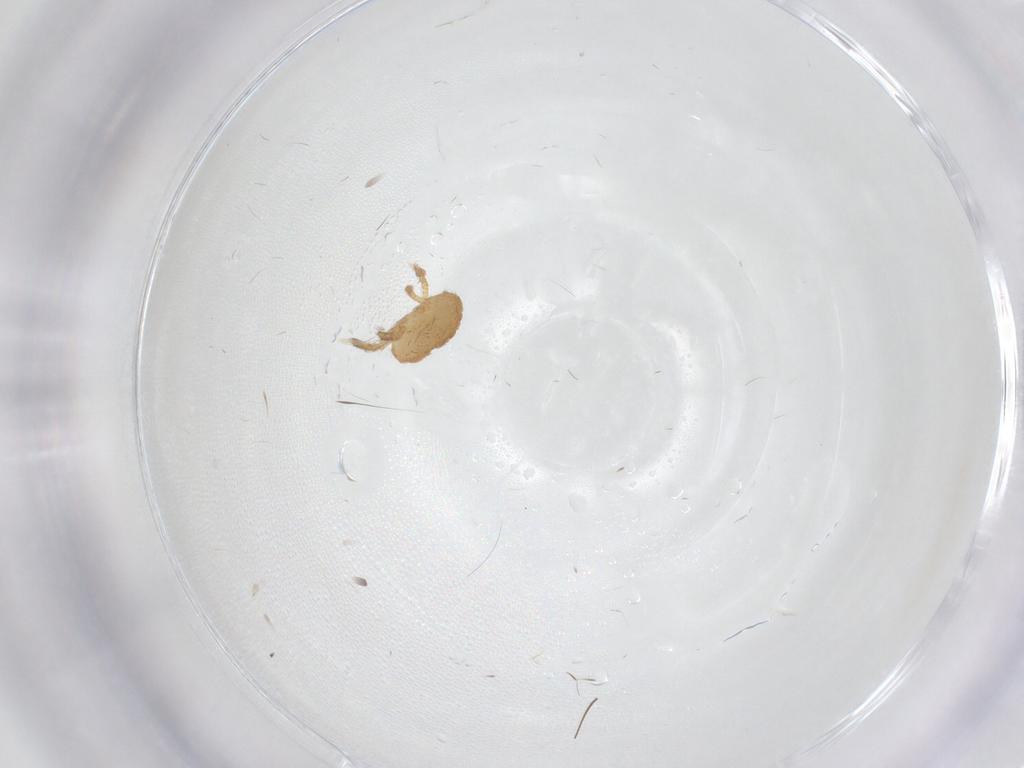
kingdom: Animalia
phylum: Arthropoda
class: Arachnida
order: Trombidiformes
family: Calyptostomatidae
